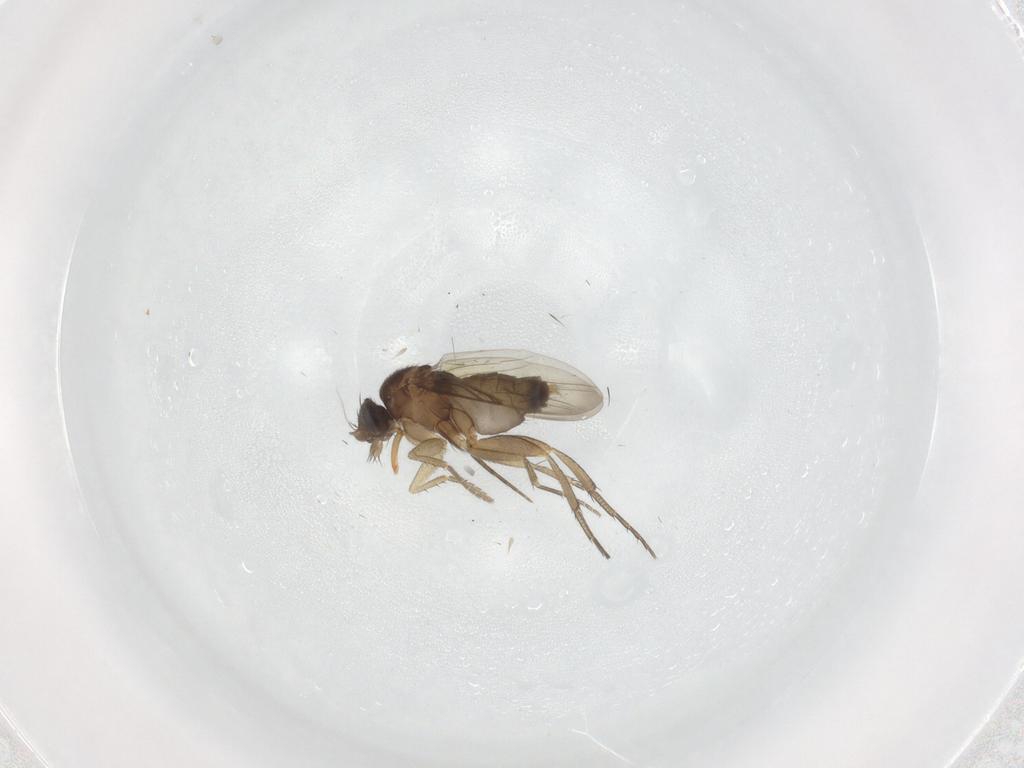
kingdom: Animalia
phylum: Arthropoda
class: Insecta
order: Diptera
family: Phoridae
